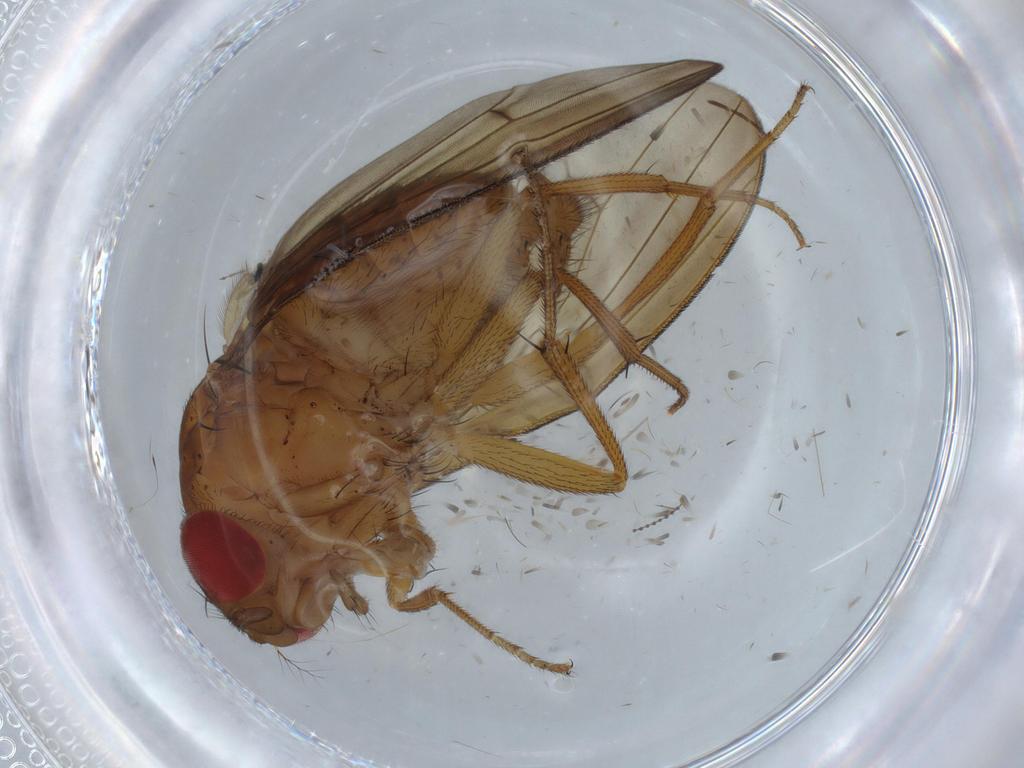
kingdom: Animalia
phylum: Arthropoda
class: Insecta
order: Diptera
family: Drosophilidae
